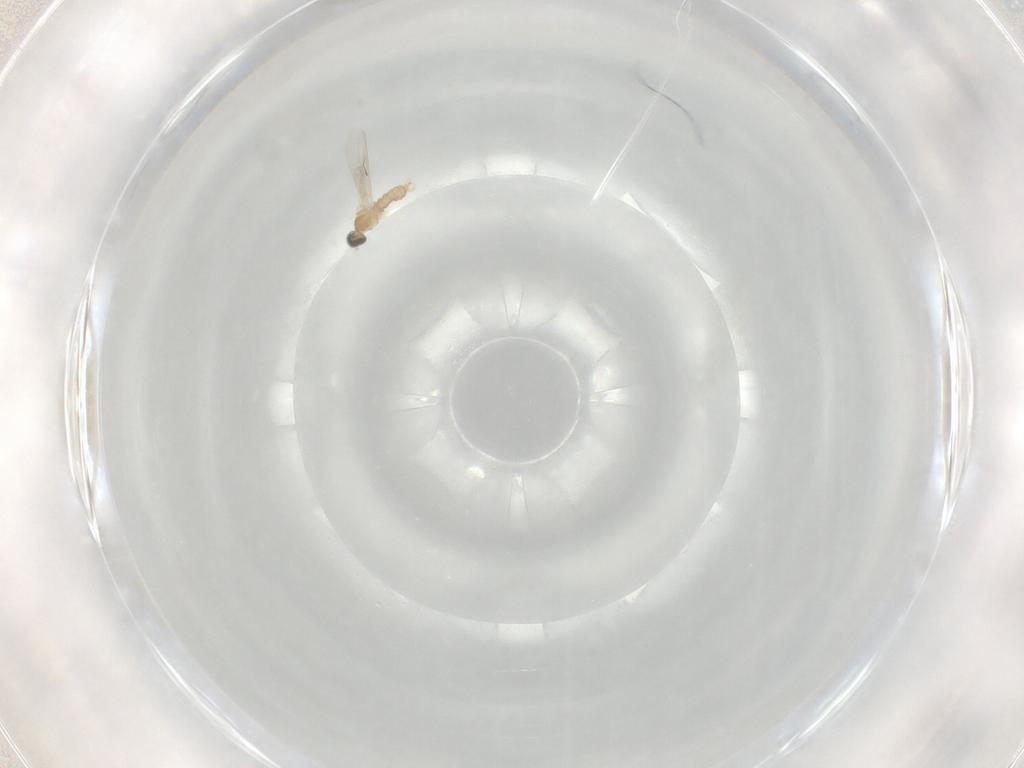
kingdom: Animalia
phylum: Arthropoda
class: Insecta
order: Diptera
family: Cecidomyiidae
